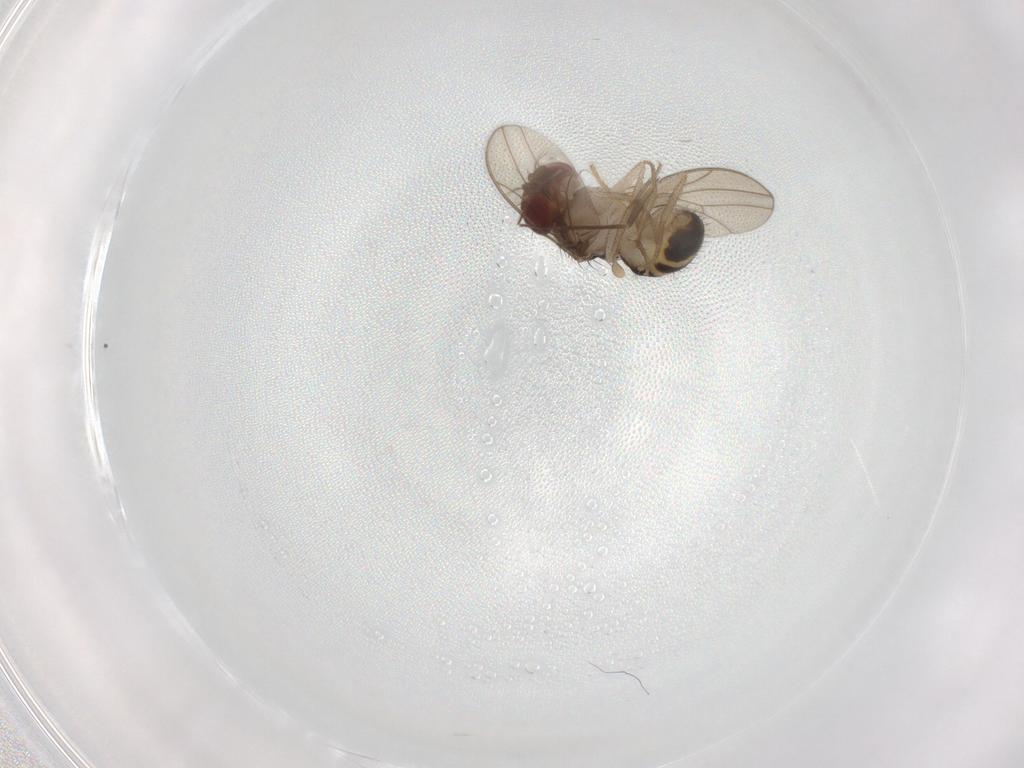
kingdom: Animalia
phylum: Arthropoda
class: Insecta
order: Diptera
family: Drosophilidae
